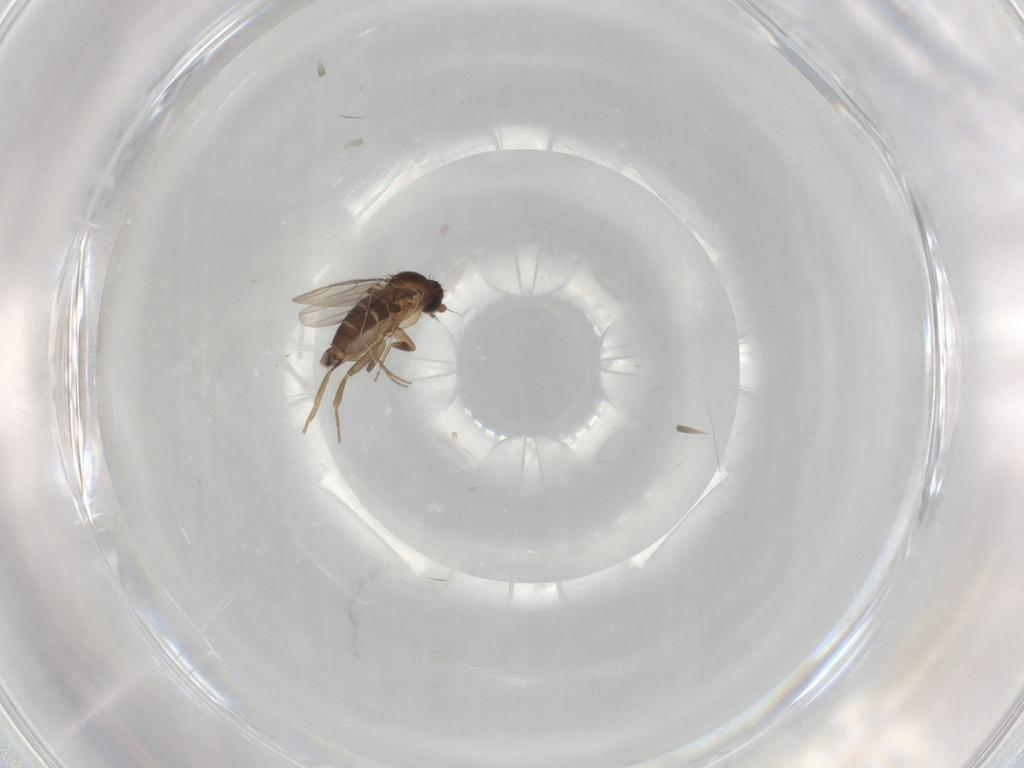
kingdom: Animalia
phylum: Arthropoda
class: Insecta
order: Diptera
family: Phoridae
